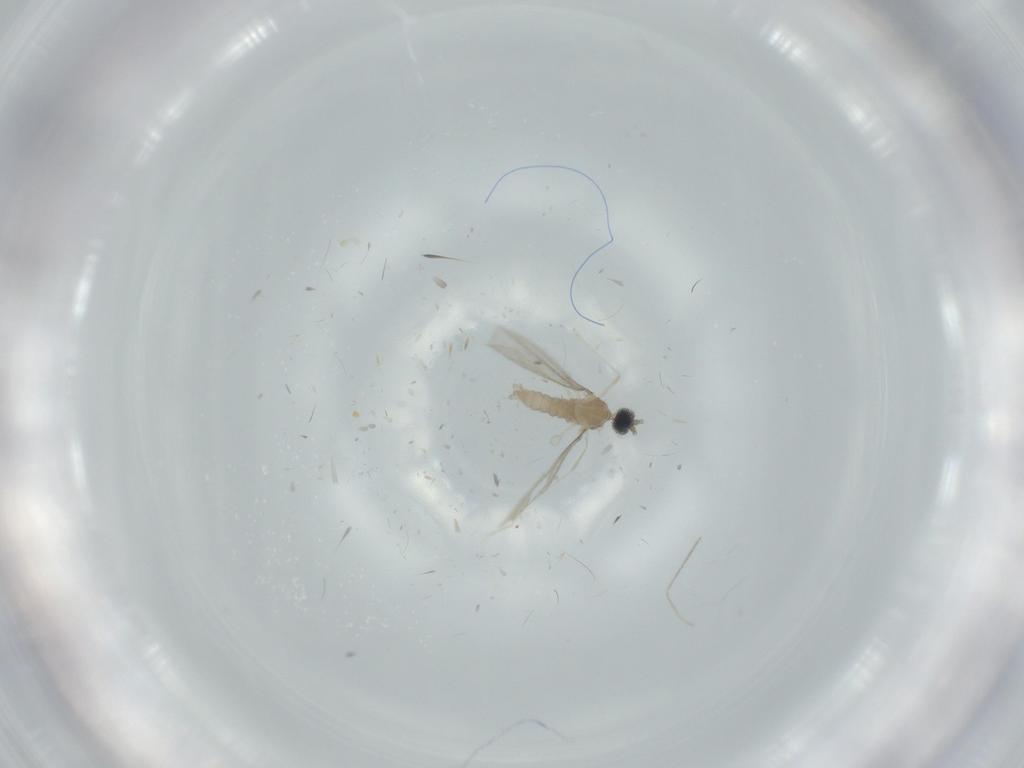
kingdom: Animalia
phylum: Arthropoda
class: Insecta
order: Diptera
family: Cecidomyiidae
